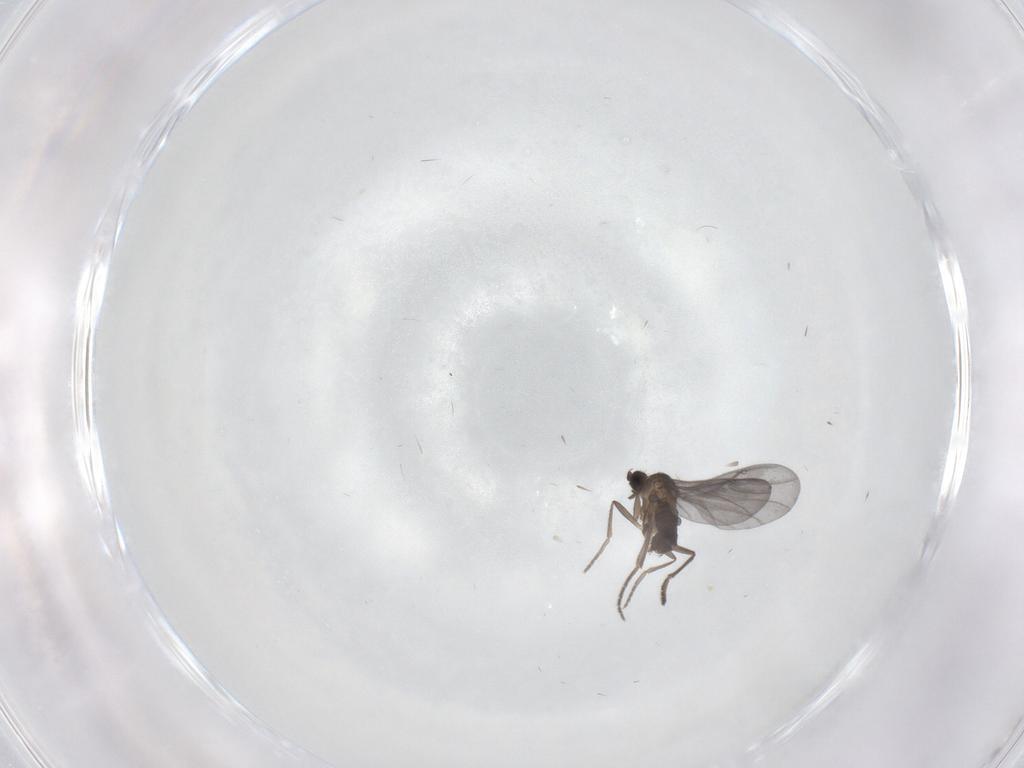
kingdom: Animalia
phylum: Arthropoda
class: Insecta
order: Diptera
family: Phoridae
